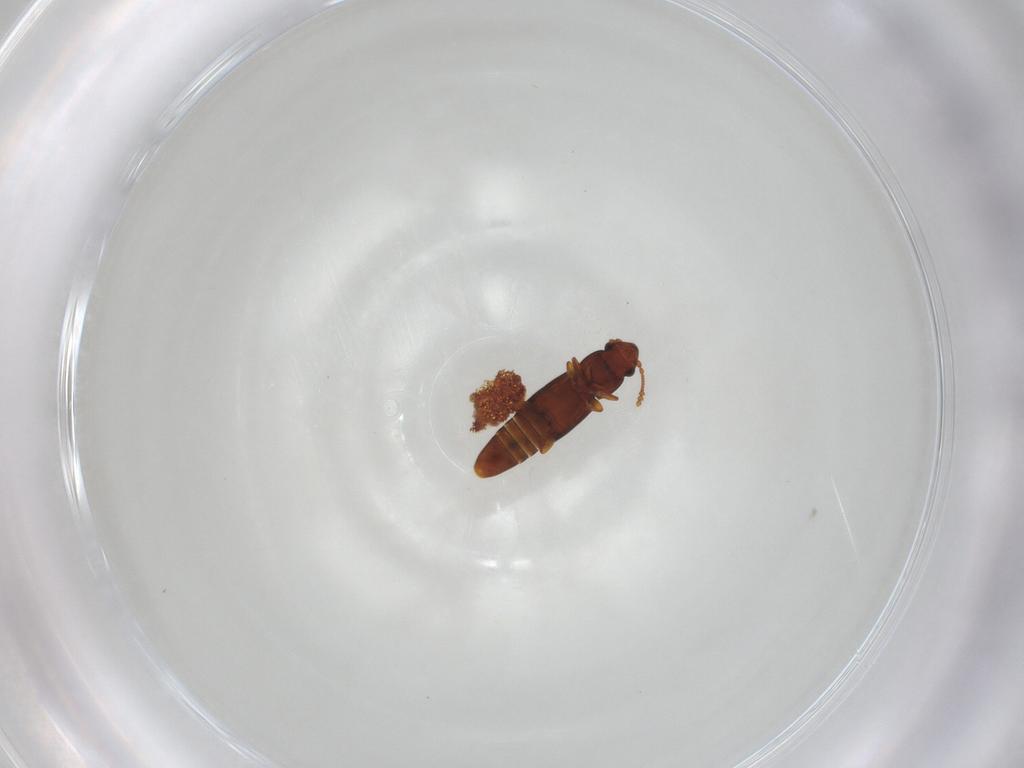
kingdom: Animalia
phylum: Arthropoda
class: Insecta
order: Coleoptera
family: Smicripidae
